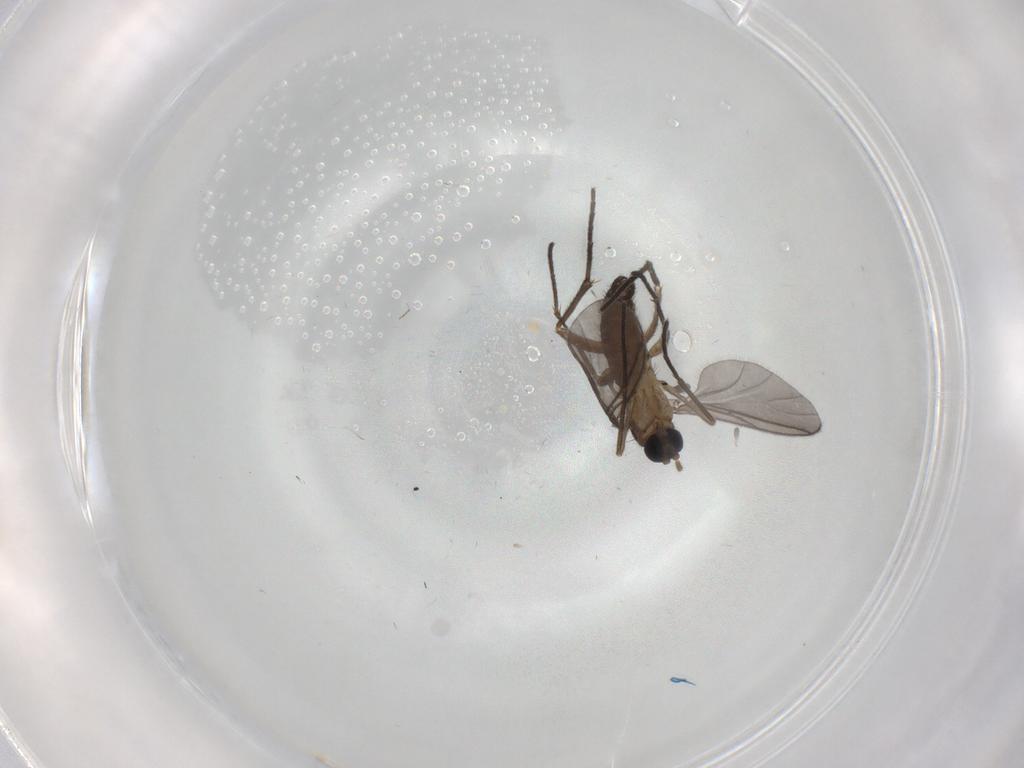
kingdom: Animalia
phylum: Arthropoda
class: Insecta
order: Diptera
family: Sciaridae
